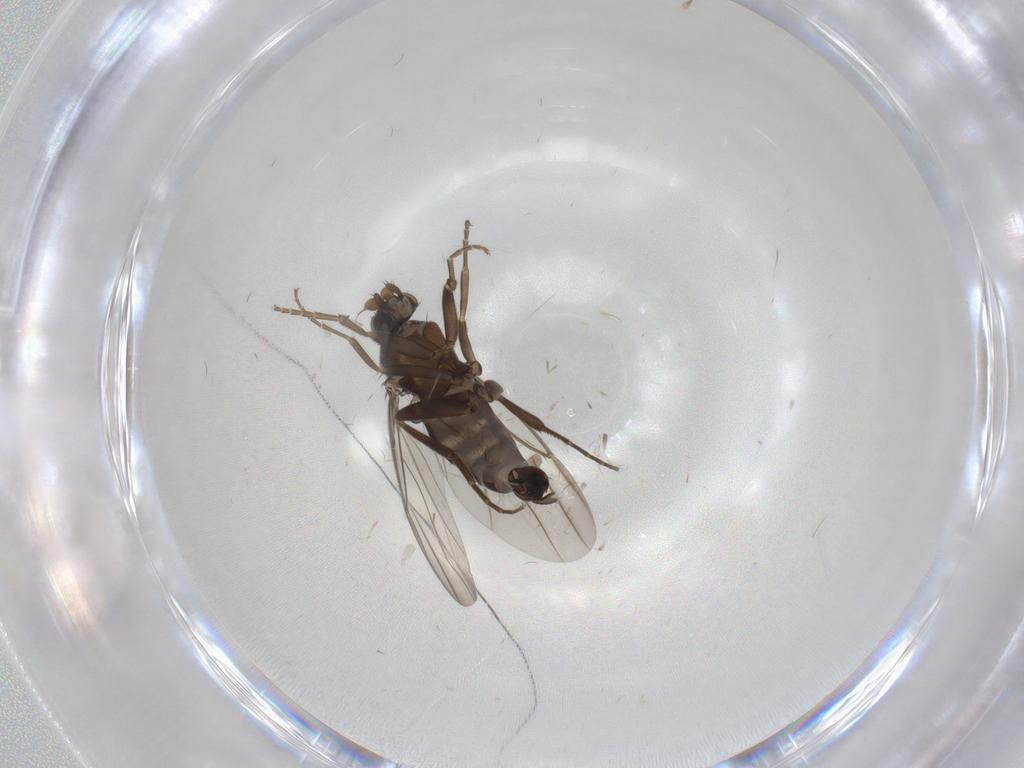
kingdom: Animalia
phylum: Arthropoda
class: Insecta
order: Diptera
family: Cecidomyiidae
